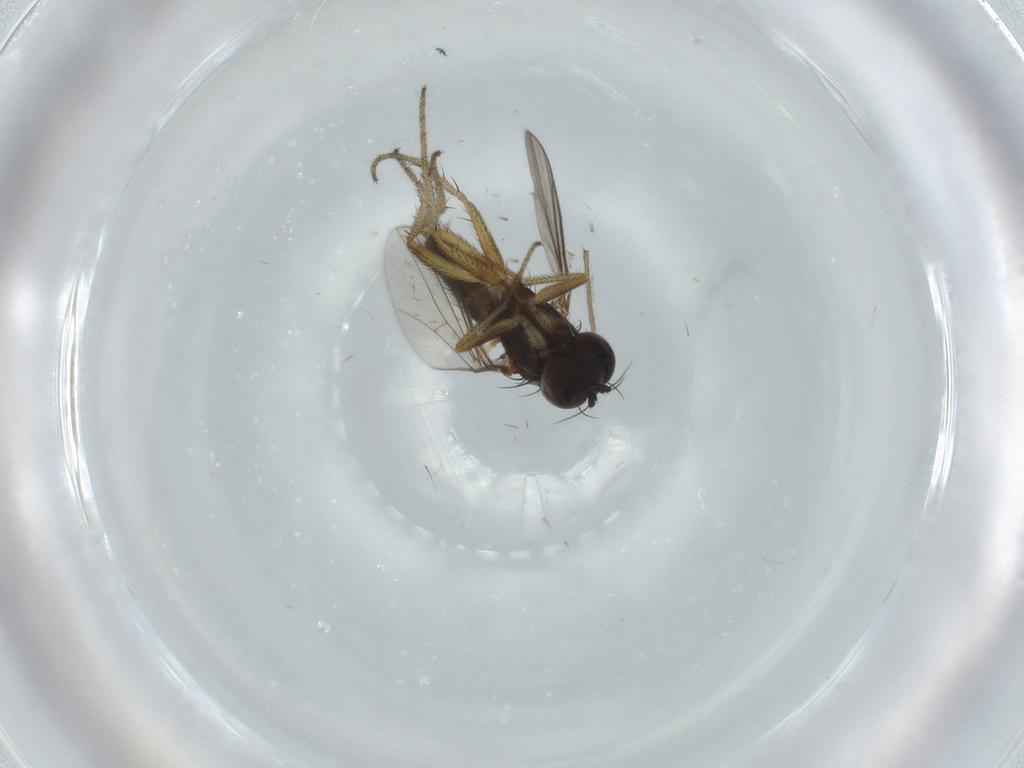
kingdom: Animalia
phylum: Arthropoda
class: Insecta
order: Diptera
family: Dolichopodidae
